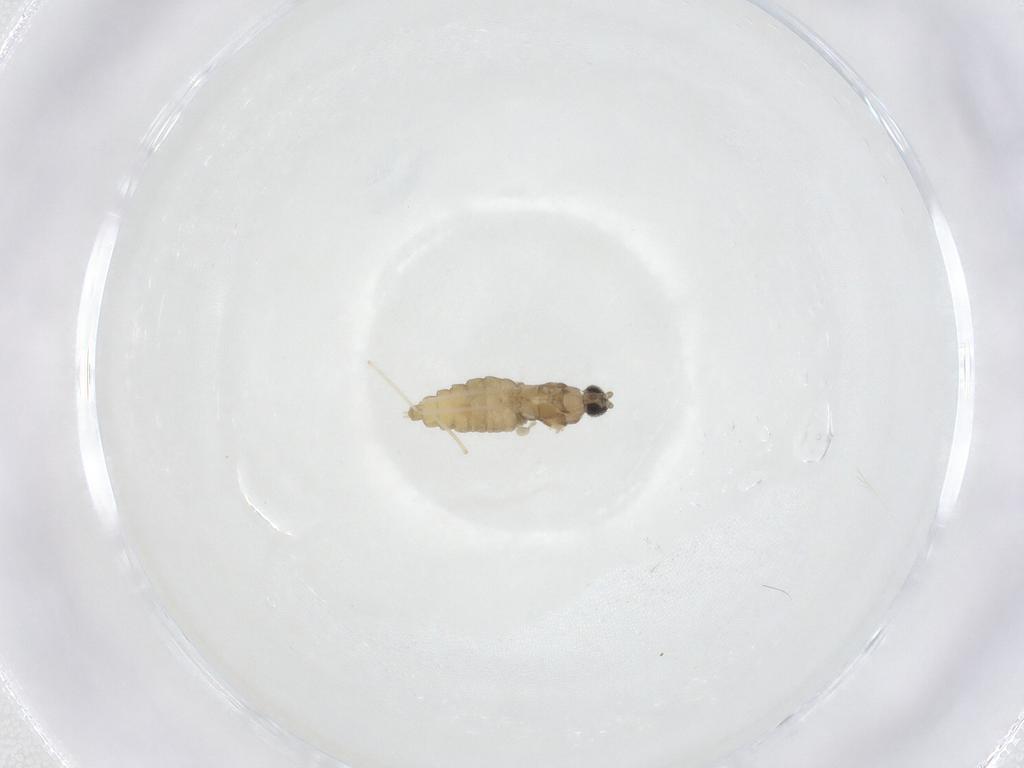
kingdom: Animalia
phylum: Arthropoda
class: Insecta
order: Diptera
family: Cecidomyiidae
